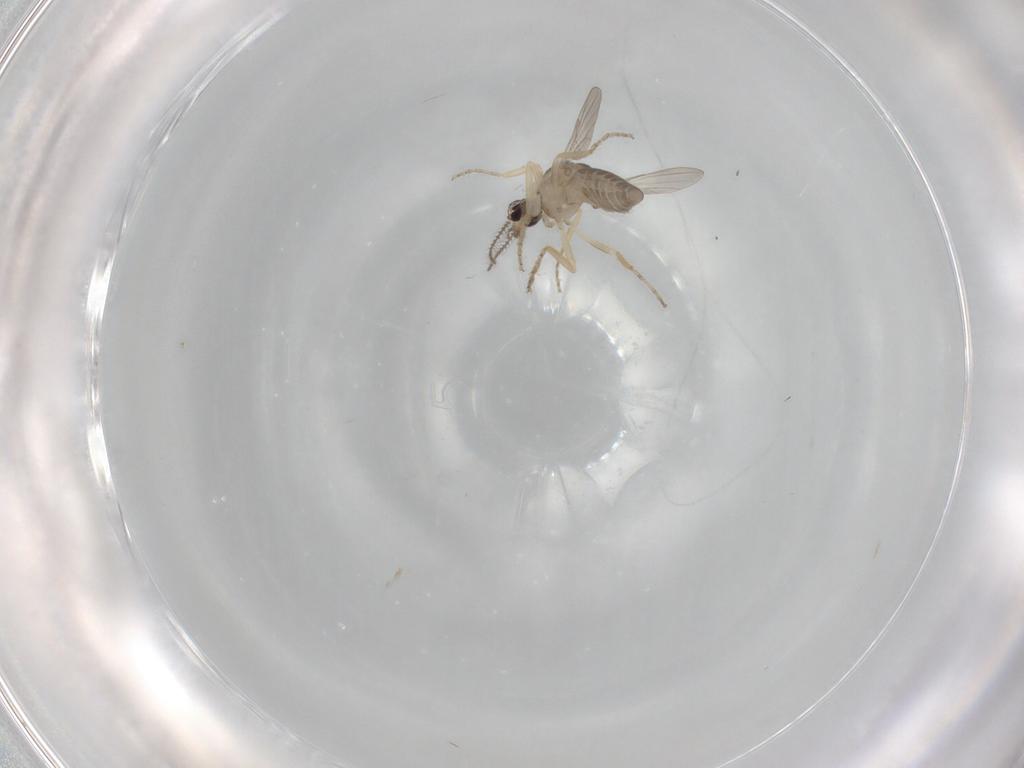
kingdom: Animalia
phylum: Arthropoda
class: Insecta
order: Diptera
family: Ceratopogonidae
